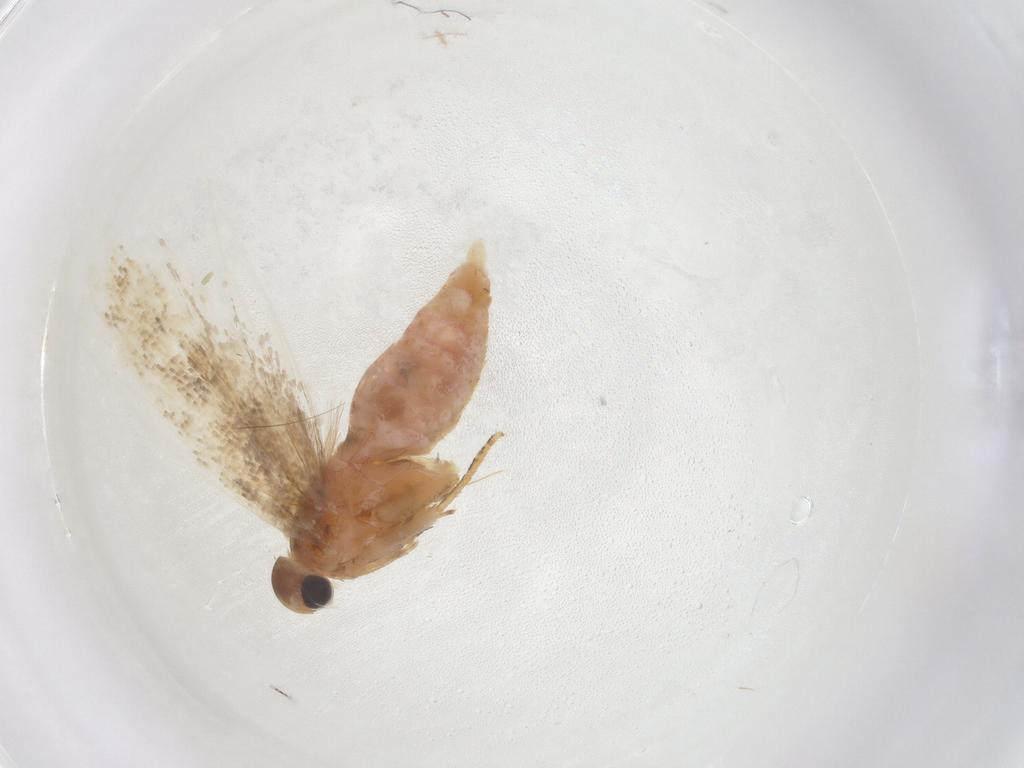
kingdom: Animalia
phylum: Arthropoda
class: Insecta
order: Lepidoptera
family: Gelechiidae
